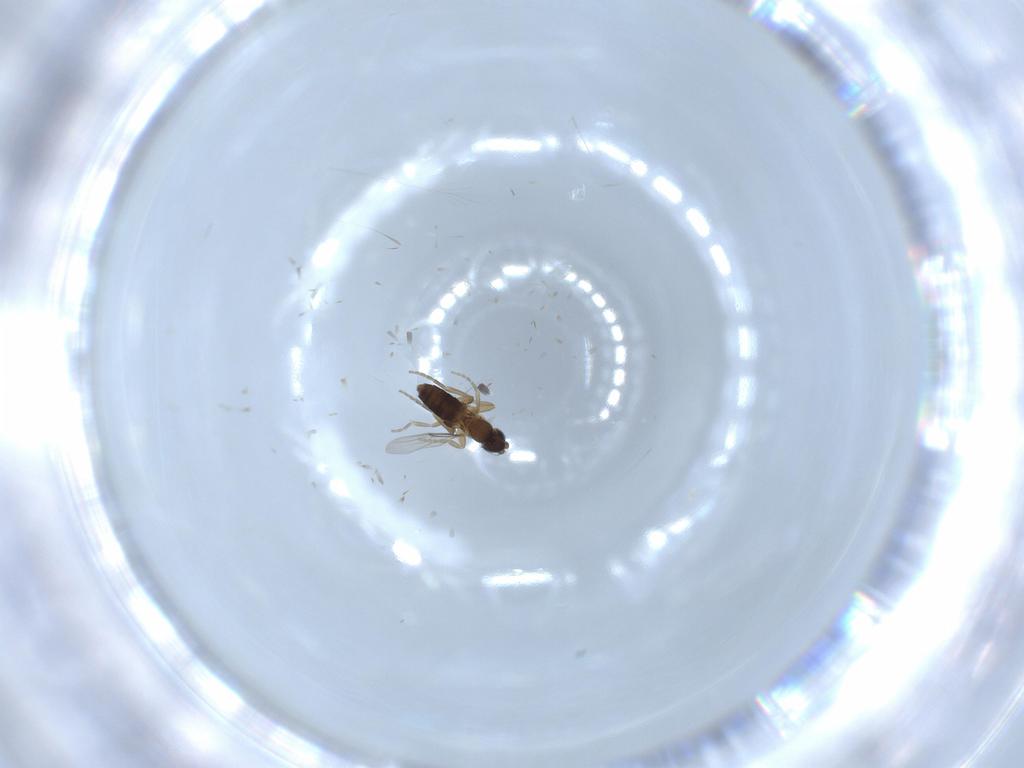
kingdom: Animalia
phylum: Arthropoda
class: Insecta
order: Diptera
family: Phoridae
